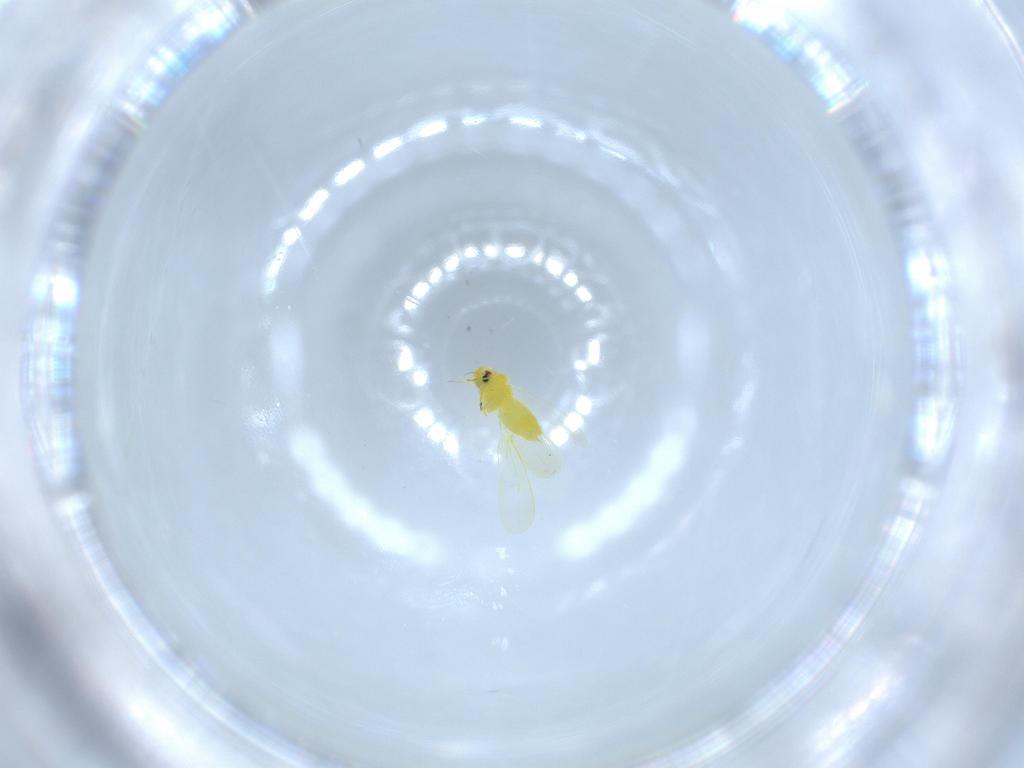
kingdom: Animalia
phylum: Arthropoda
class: Insecta
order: Hemiptera
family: Aleyrodidae
